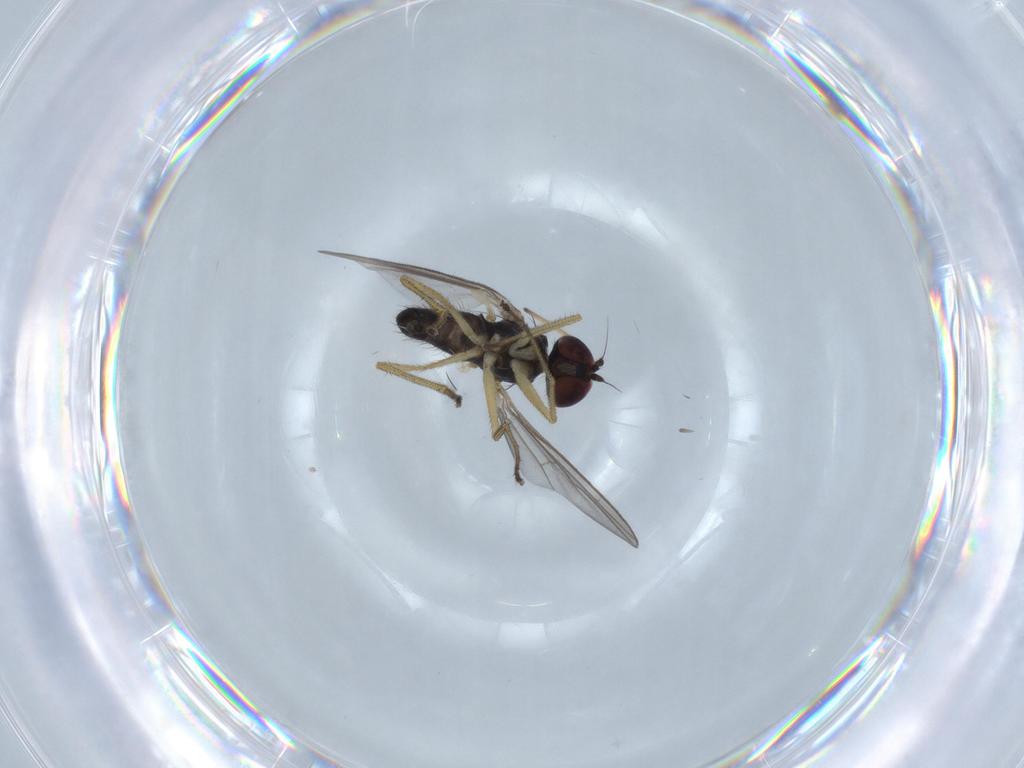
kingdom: Animalia
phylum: Arthropoda
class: Insecta
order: Diptera
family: Dolichopodidae
